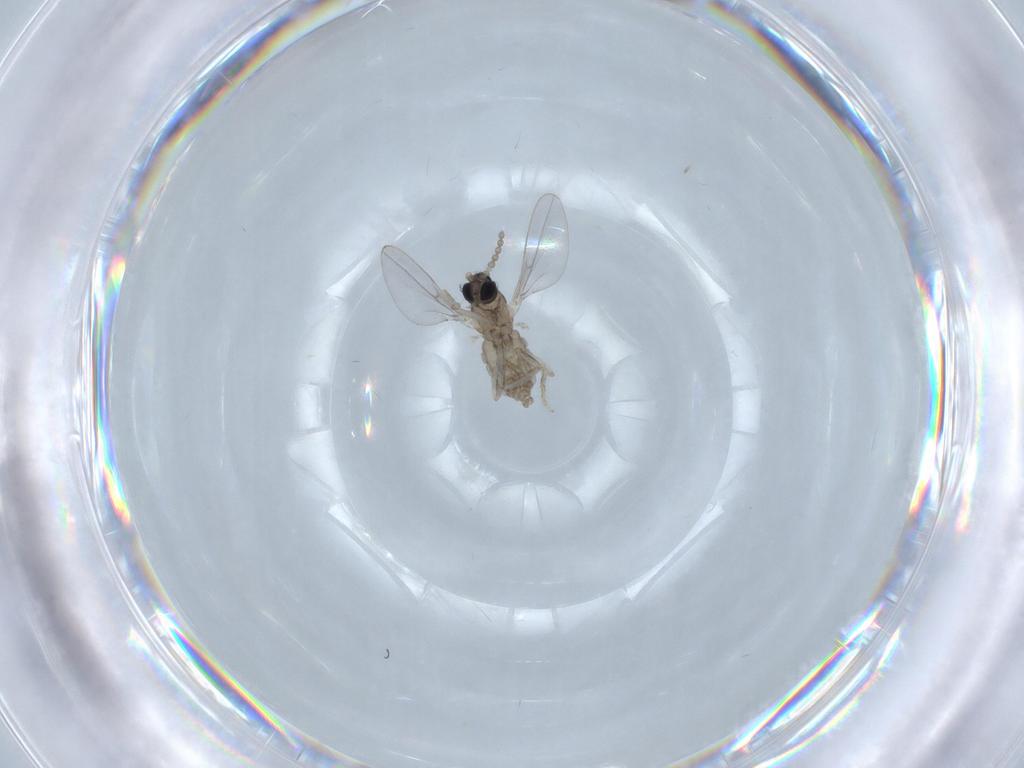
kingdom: Animalia
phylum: Arthropoda
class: Insecta
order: Diptera
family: Cecidomyiidae
